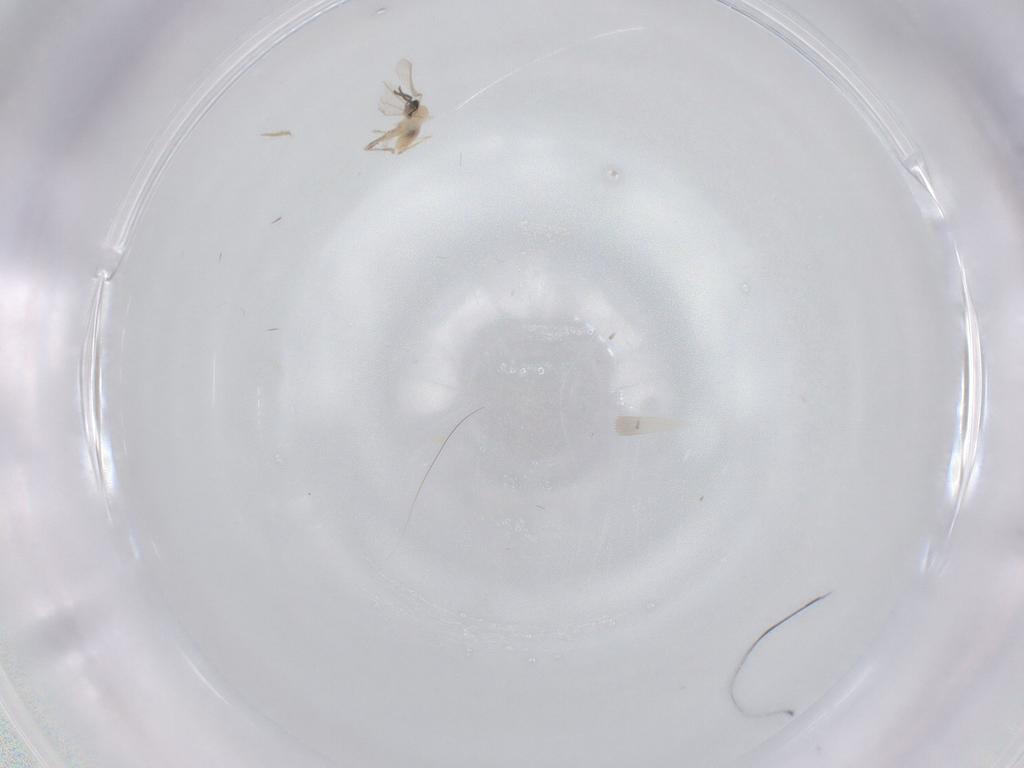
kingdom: Animalia
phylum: Arthropoda
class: Insecta
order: Diptera
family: Cecidomyiidae
